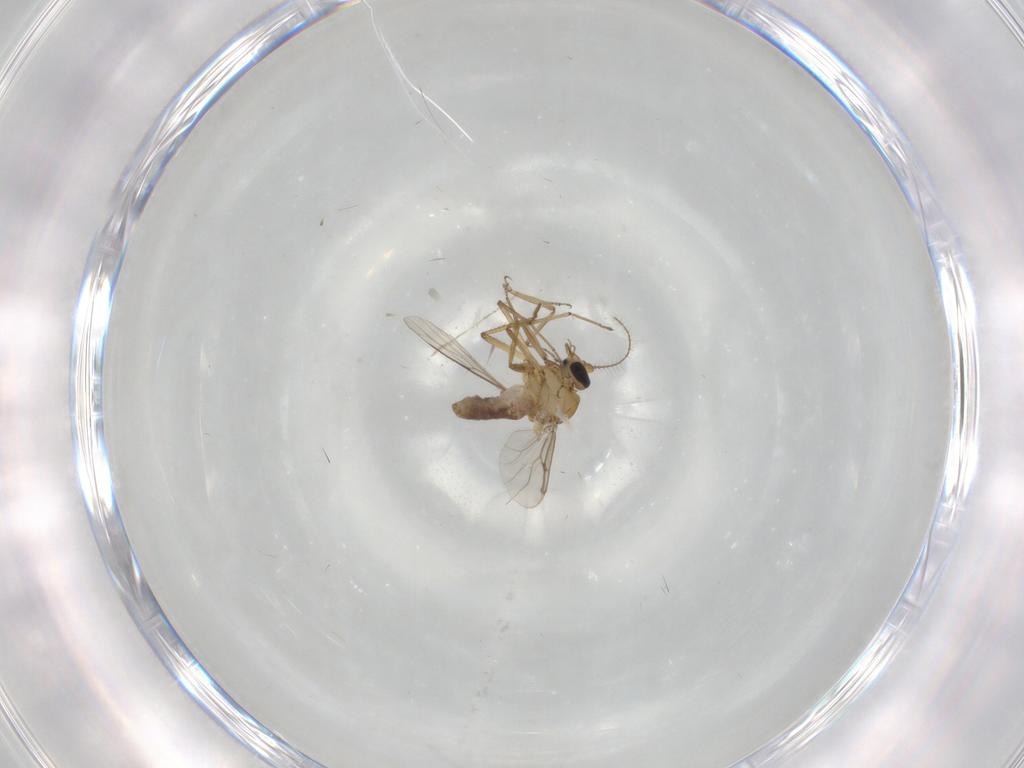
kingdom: Animalia
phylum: Arthropoda
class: Insecta
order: Diptera
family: Ceratopogonidae
